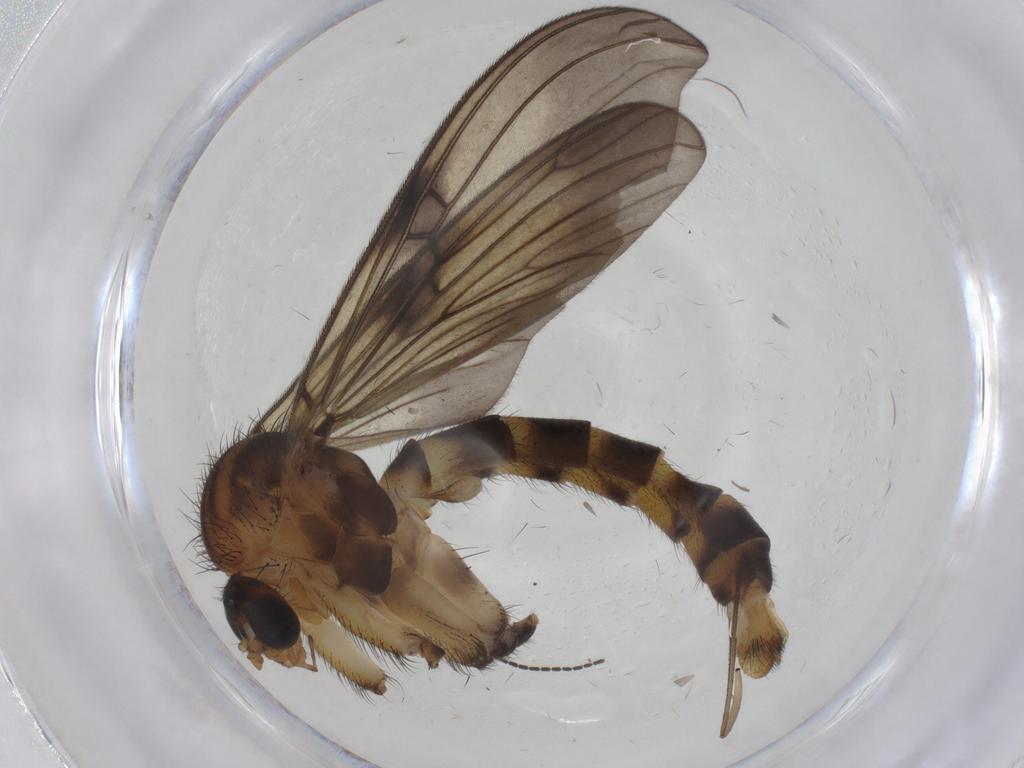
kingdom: Animalia
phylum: Arthropoda
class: Insecta
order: Diptera
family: Mycetophilidae
